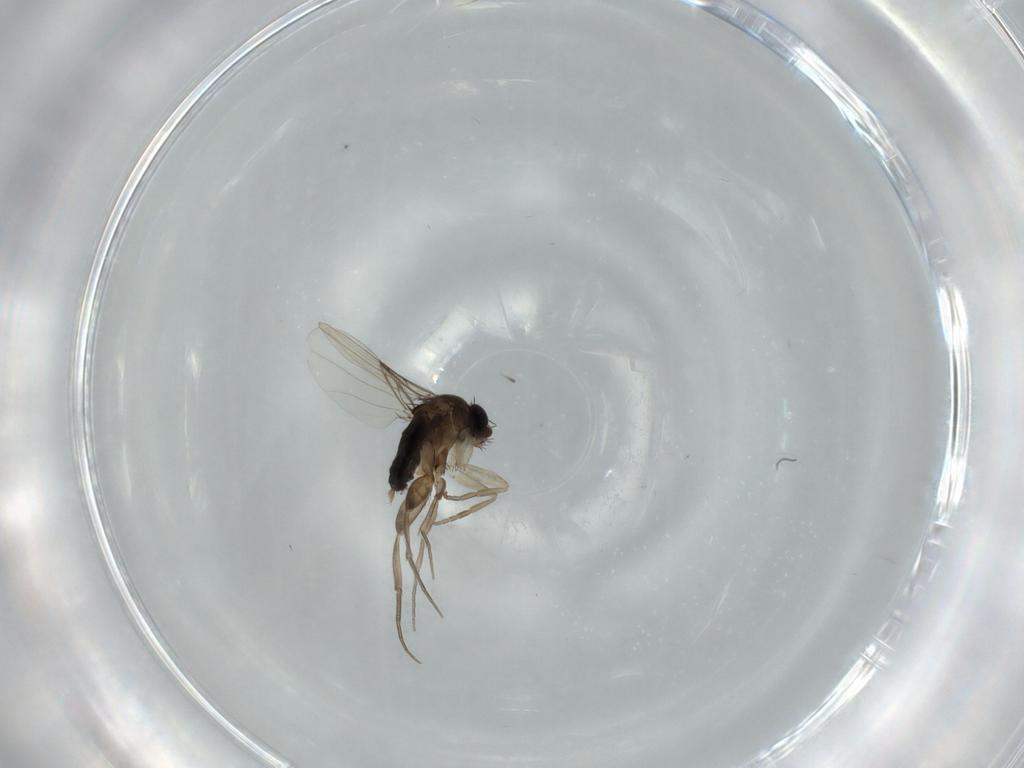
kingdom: Animalia
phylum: Arthropoda
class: Insecta
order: Diptera
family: Phoridae
